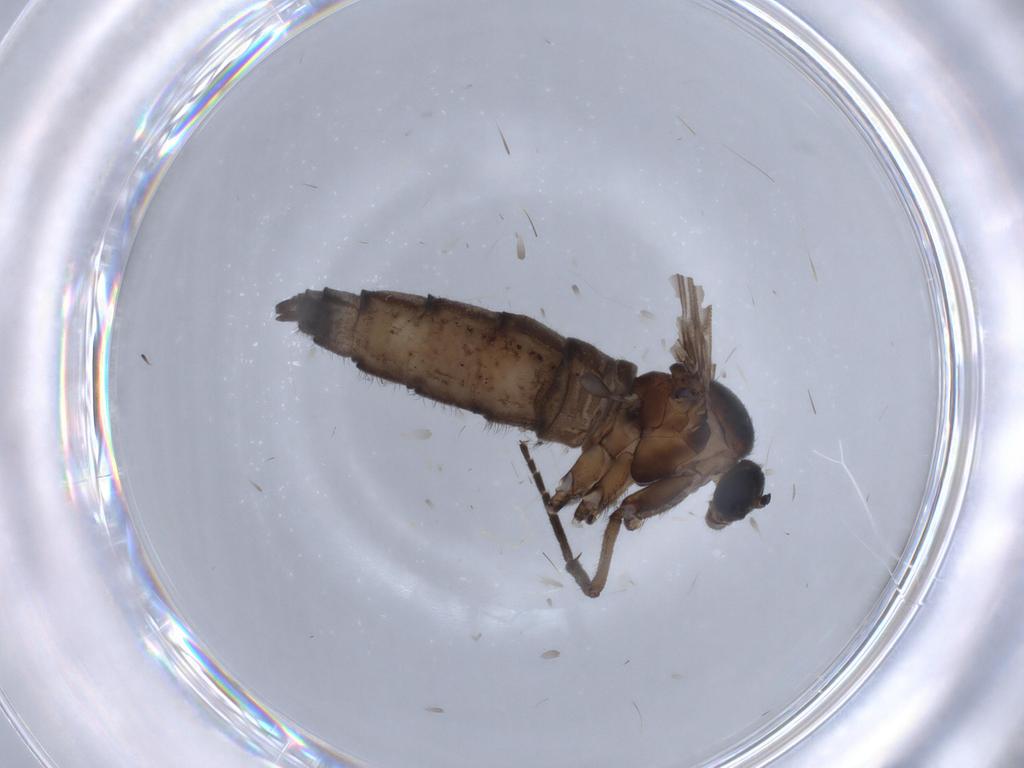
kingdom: Animalia
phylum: Arthropoda
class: Insecta
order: Diptera
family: Sciaridae
